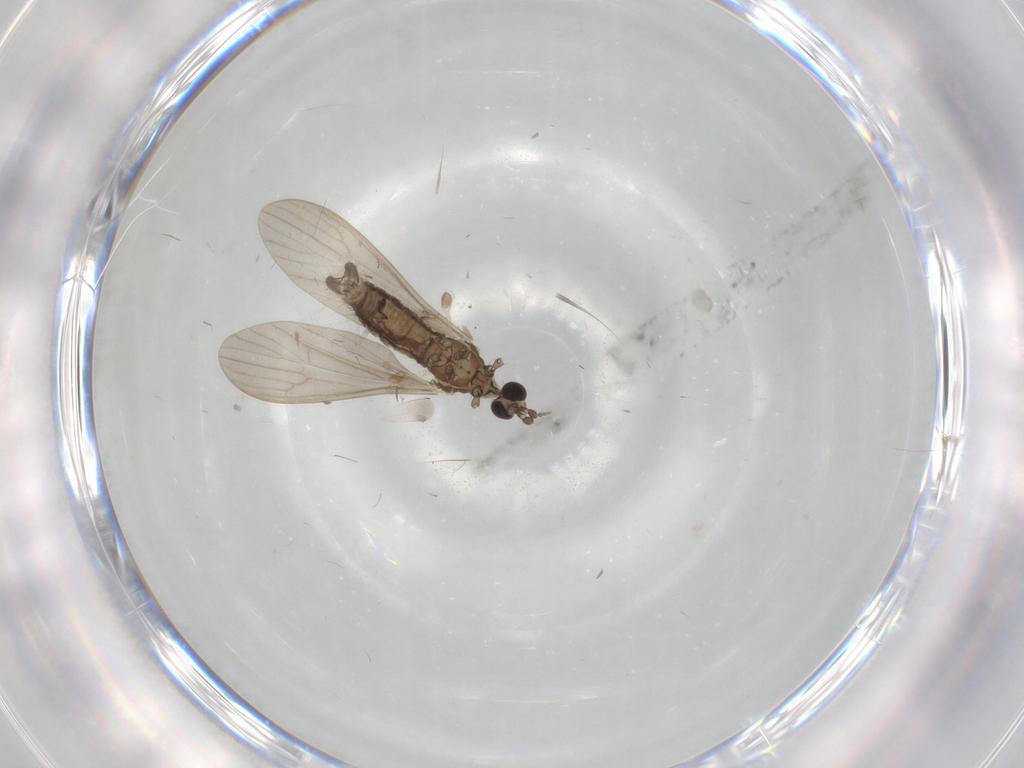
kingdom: Animalia
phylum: Arthropoda
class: Insecta
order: Diptera
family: Limoniidae
